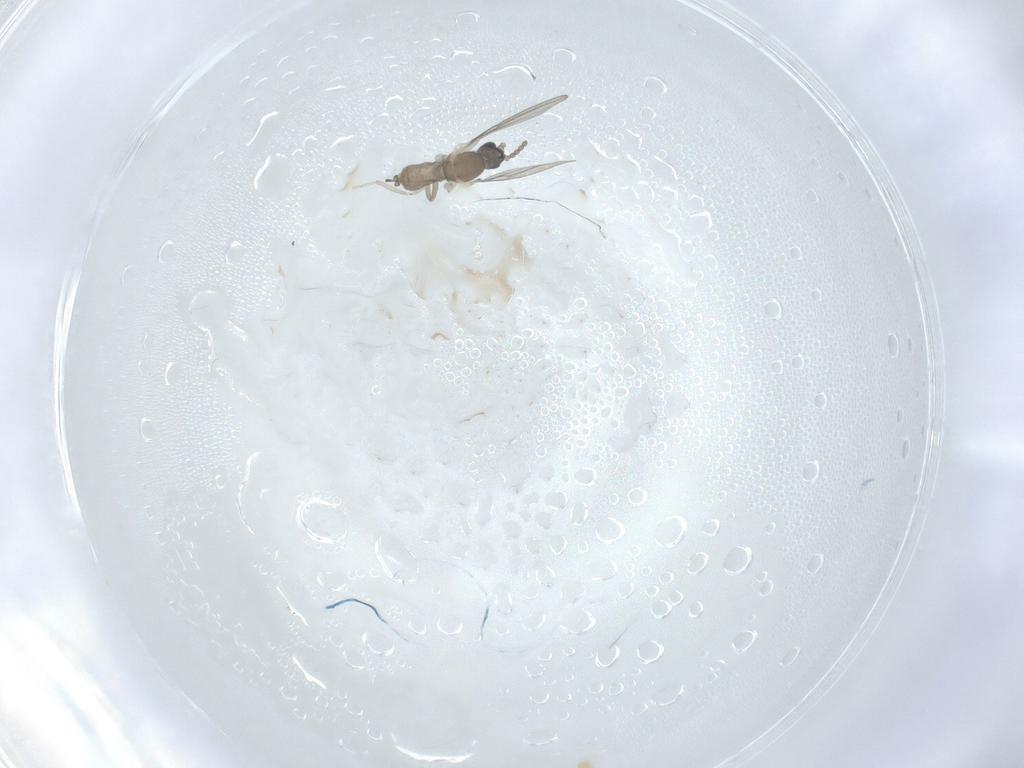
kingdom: Animalia
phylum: Arthropoda
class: Insecta
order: Diptera
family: Cecidomyiidae
